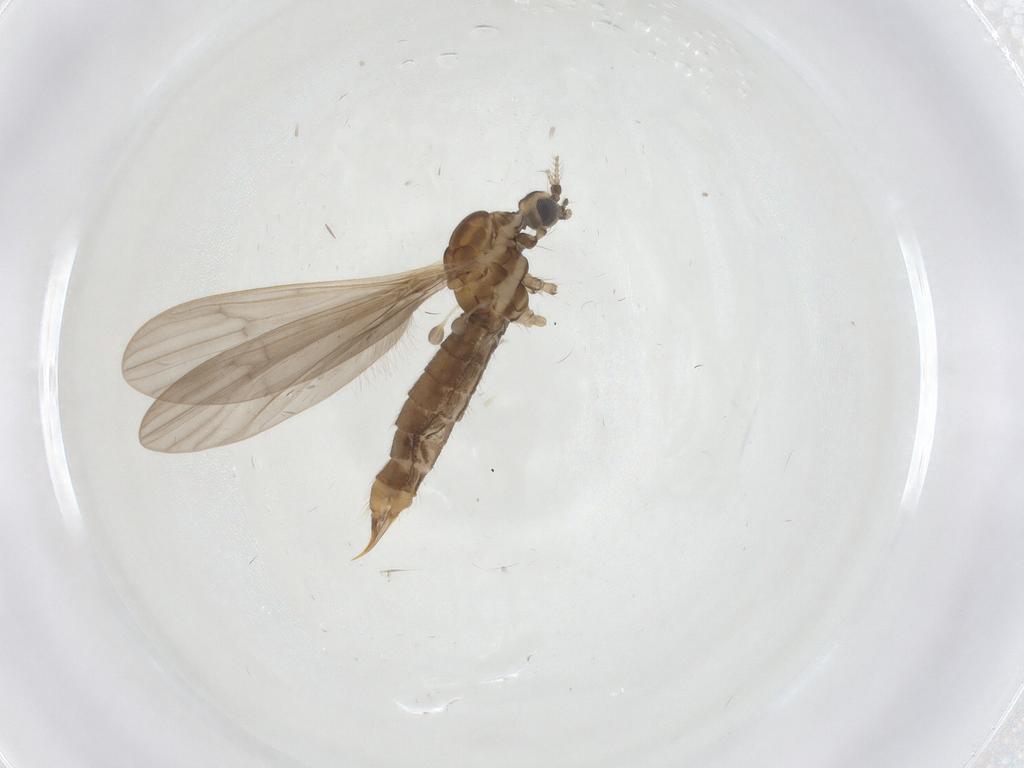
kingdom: Animalia
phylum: Arthropoda
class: Insecta
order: Diptera
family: Limoniidae
